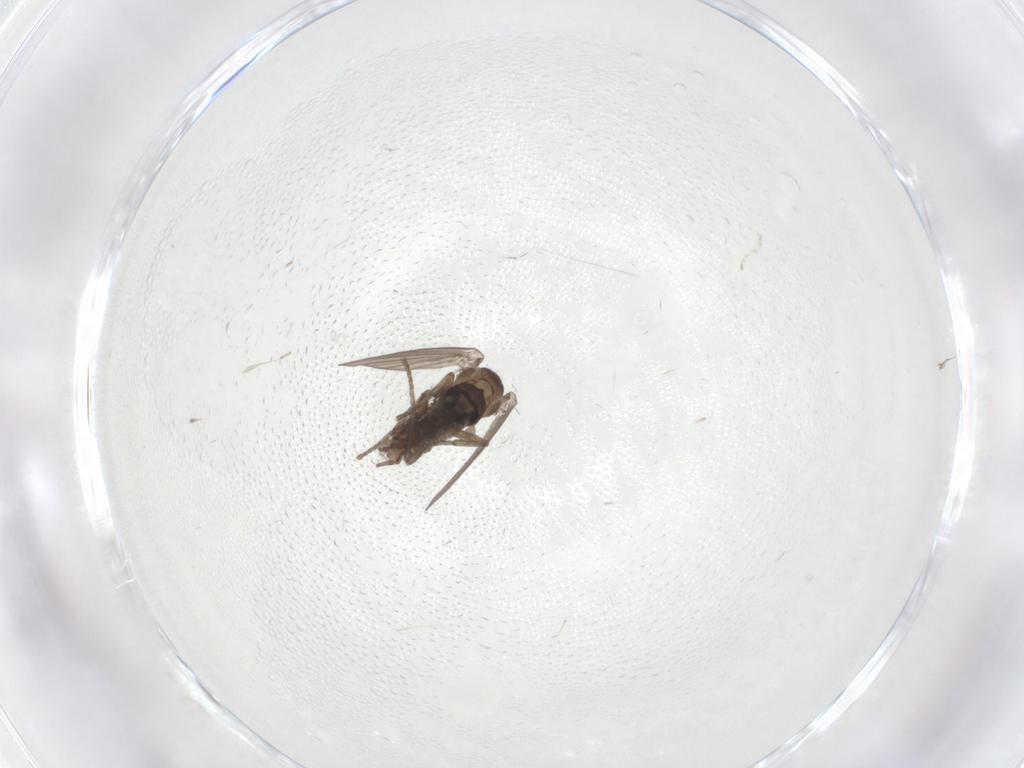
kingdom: Animalia
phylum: Arthropoda
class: Insecta
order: Diptera
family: Psychodidae
